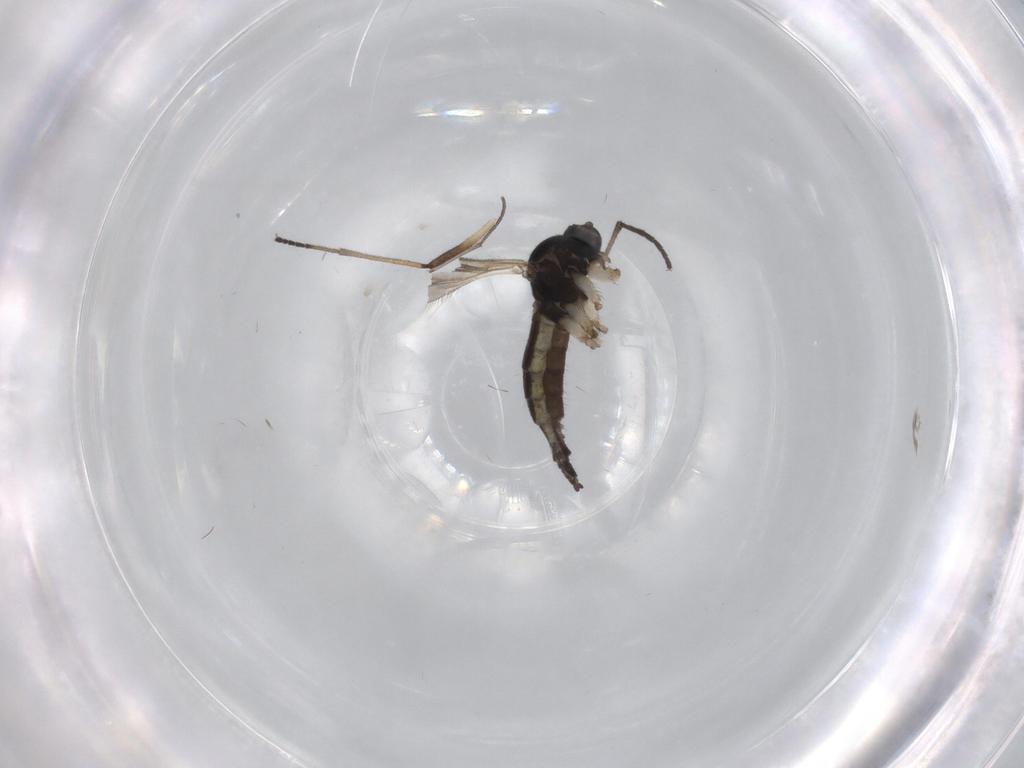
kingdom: Animalia
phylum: Arthropoda
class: Insecta
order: Diptera
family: Sciaridae
